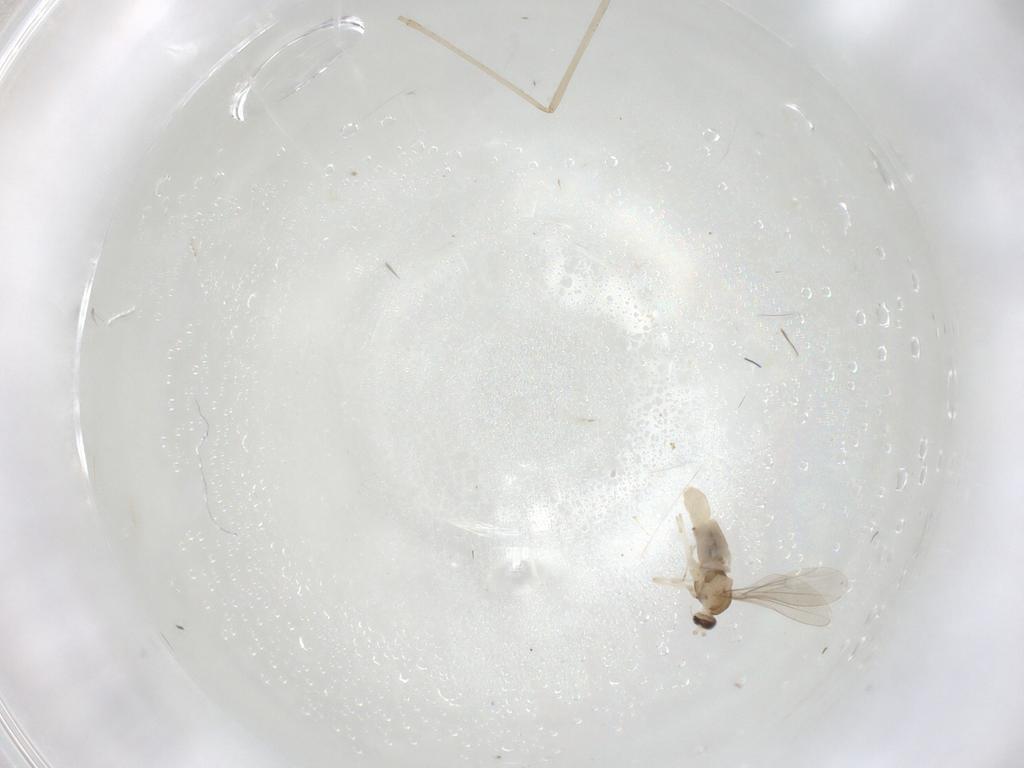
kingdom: Animalia
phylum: Arthropoda
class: Insecta
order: Diptera
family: Cecidomyiidae
